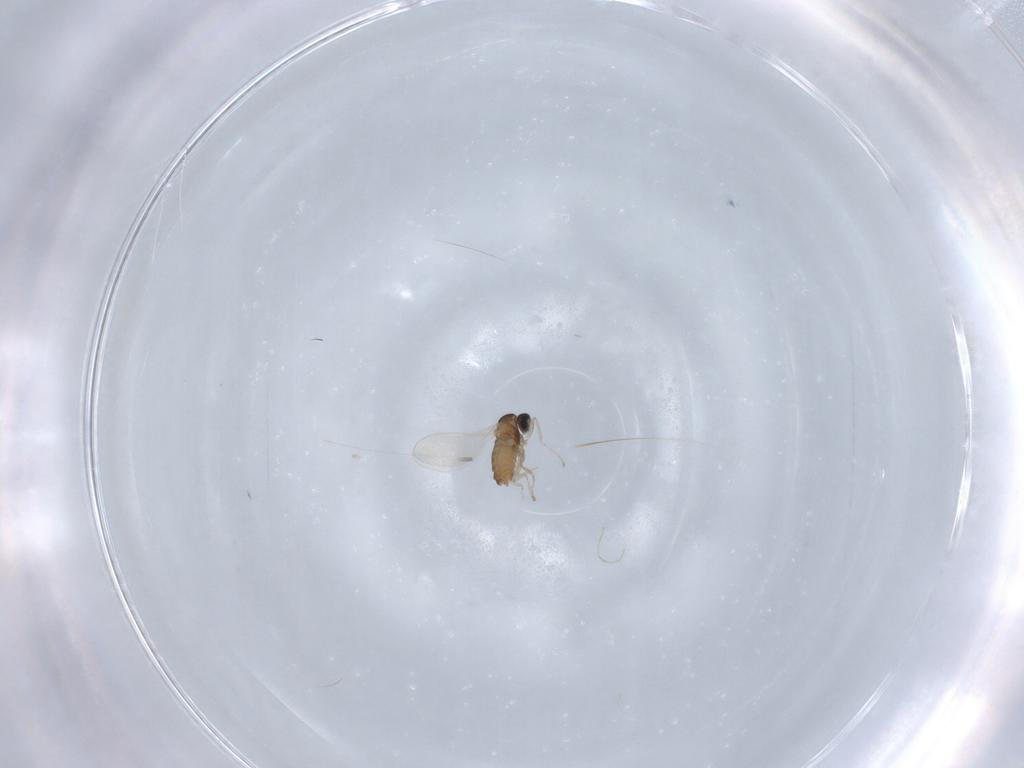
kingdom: Animalia
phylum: Arthropoda
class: Insecta
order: Diptera
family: Cecidomyiidae
